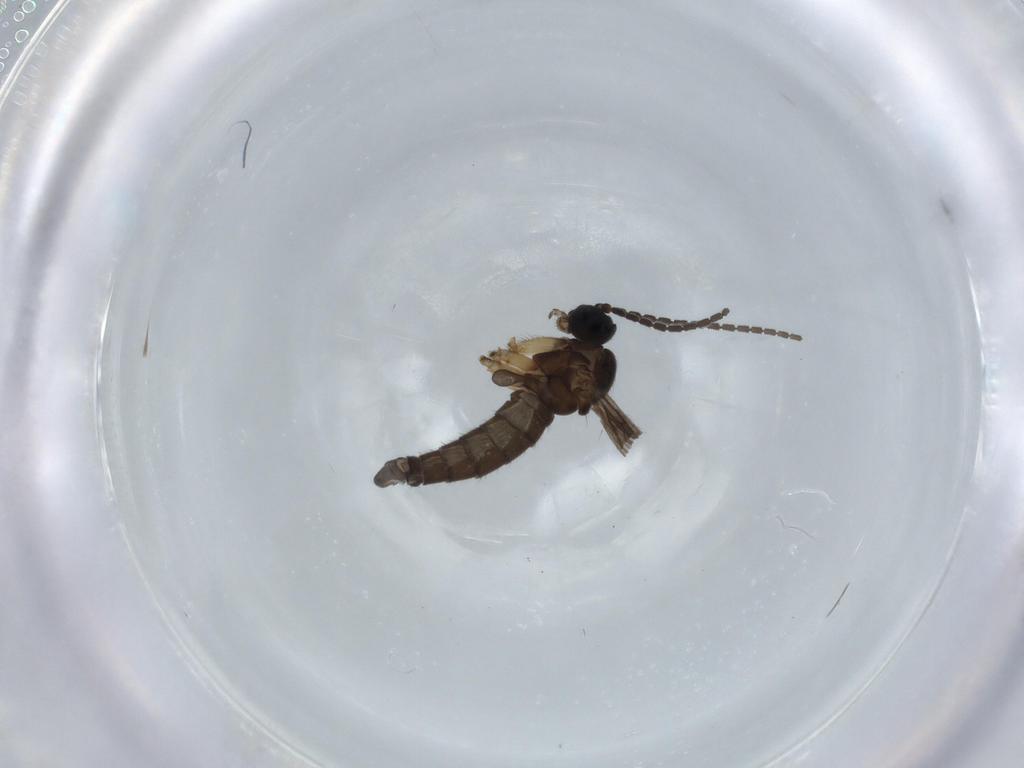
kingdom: Animalia
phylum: Arthropoda
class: Insecta
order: Diptera
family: Sciaridae
